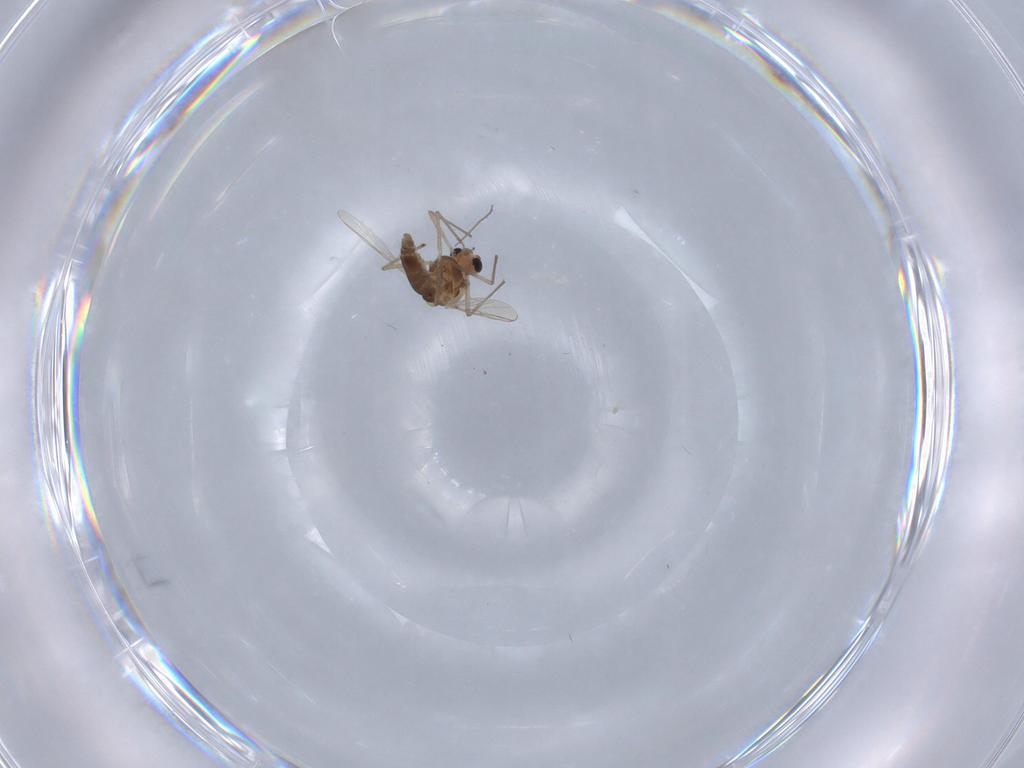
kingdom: Animalia
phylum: Arthropoda
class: Insecta
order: Diptera
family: Chironomidae
